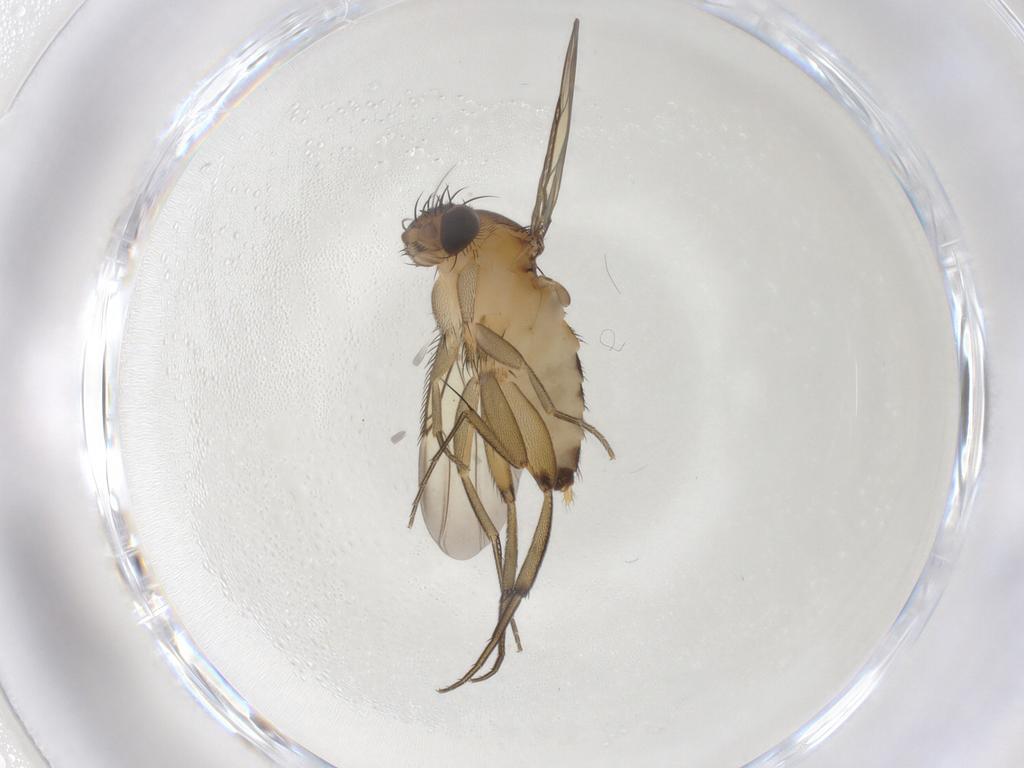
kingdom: Animalia
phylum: Arthropoda
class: Insecta
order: Diptera
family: Phoridae
